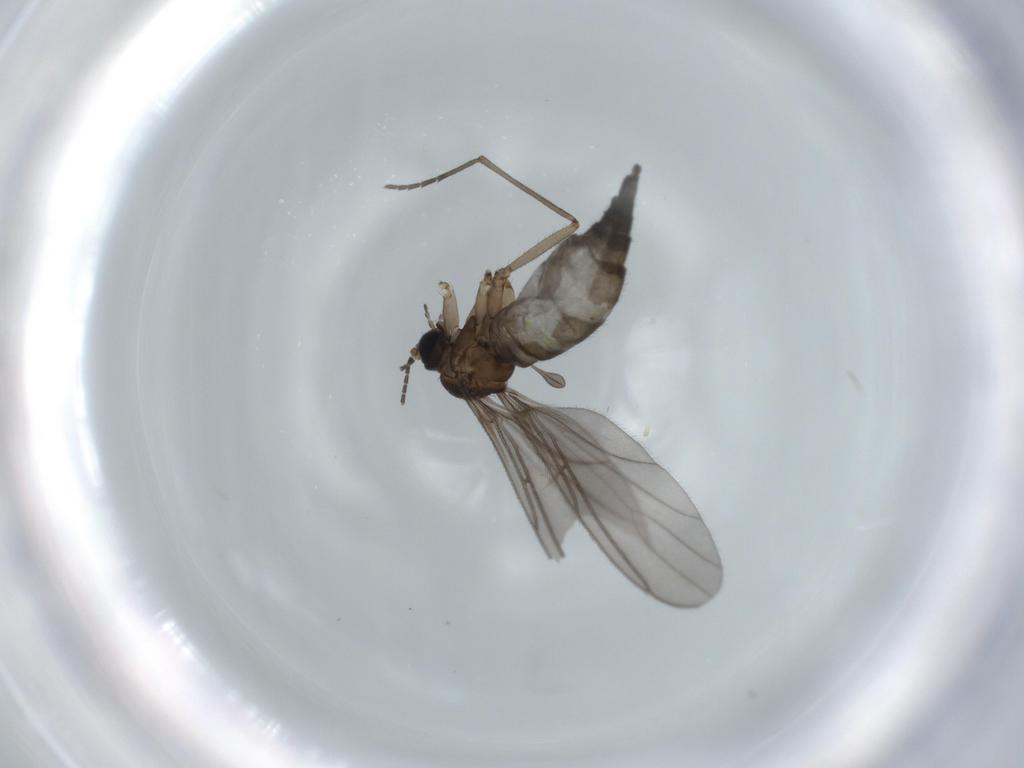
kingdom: Animalia
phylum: Arthropoda
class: Insecta
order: Diptera
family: Sciaridae
